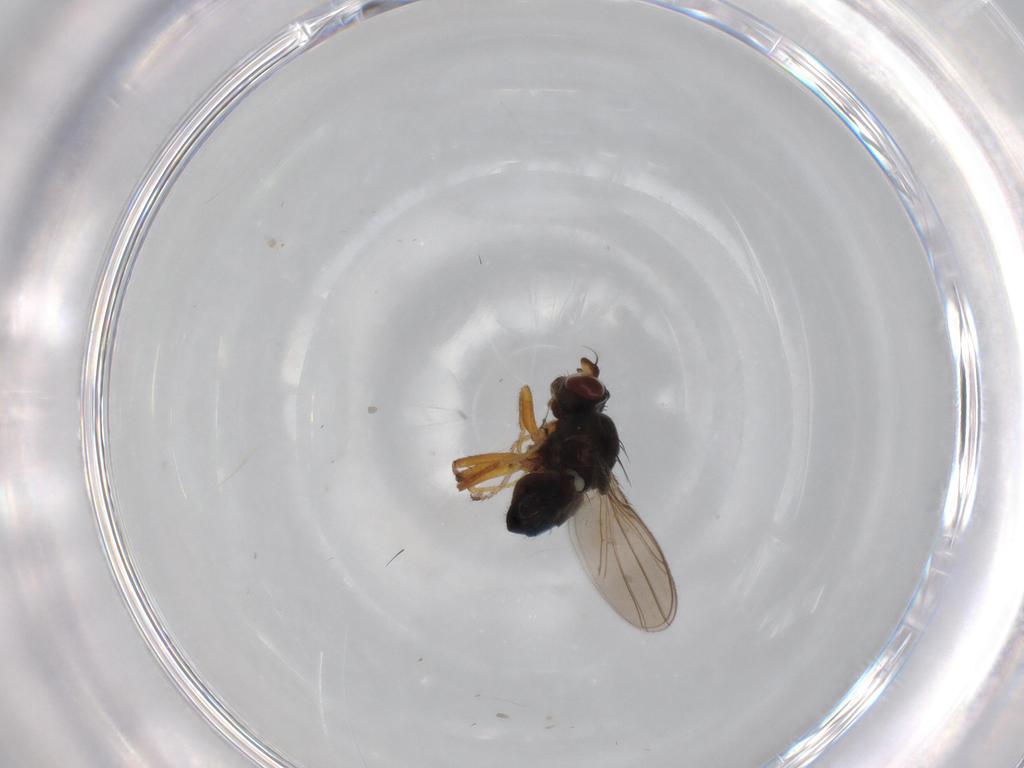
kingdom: Animalia
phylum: Arthropoda
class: Insecta
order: Diptera
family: Ephydridae
